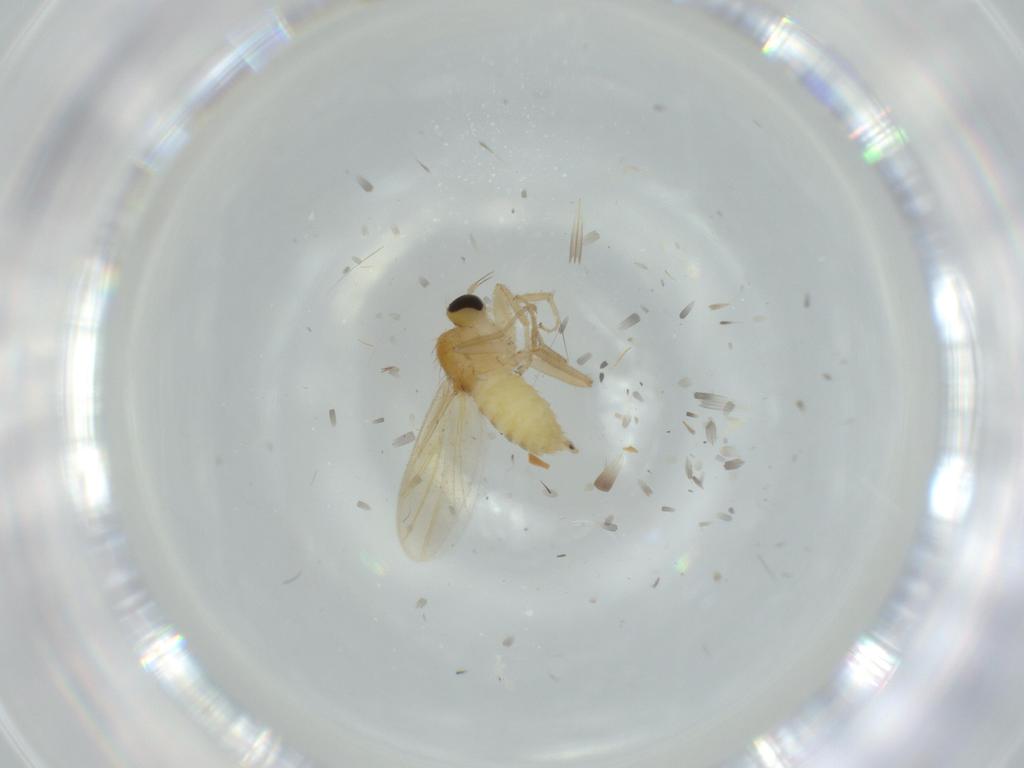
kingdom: Animalia
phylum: Arthropoda
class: Insecta
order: Diptera
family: Hybotidae
